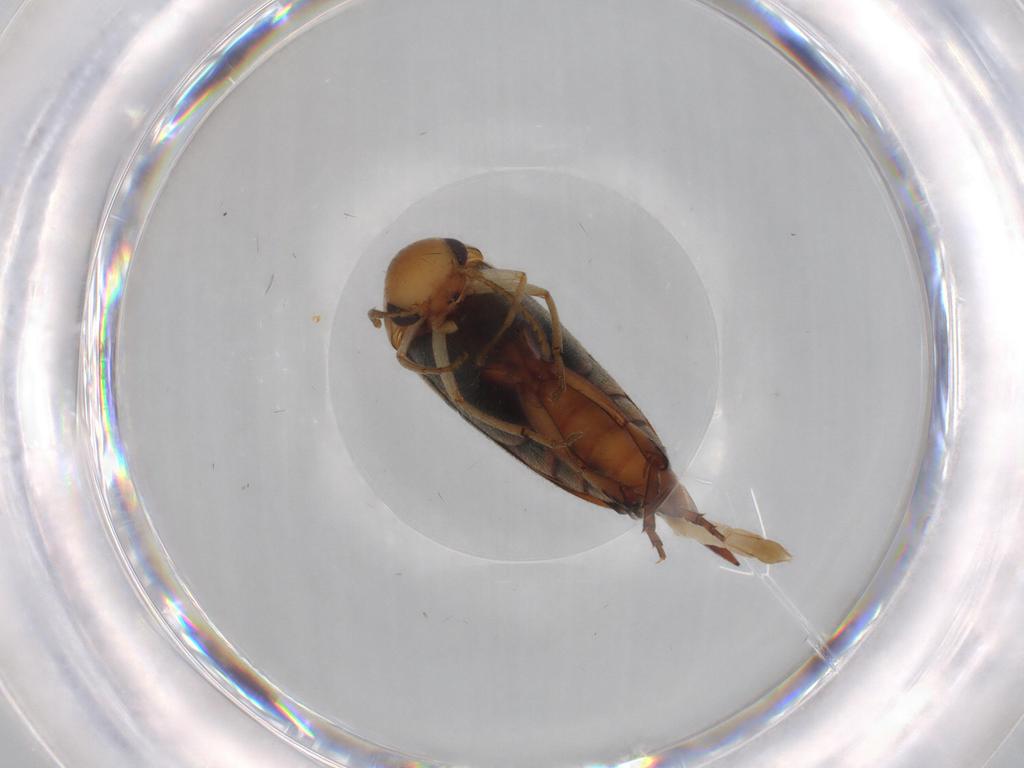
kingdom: Animalia
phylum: Arthropoda
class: Insecta
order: Coleoptera
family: Mordellidae
